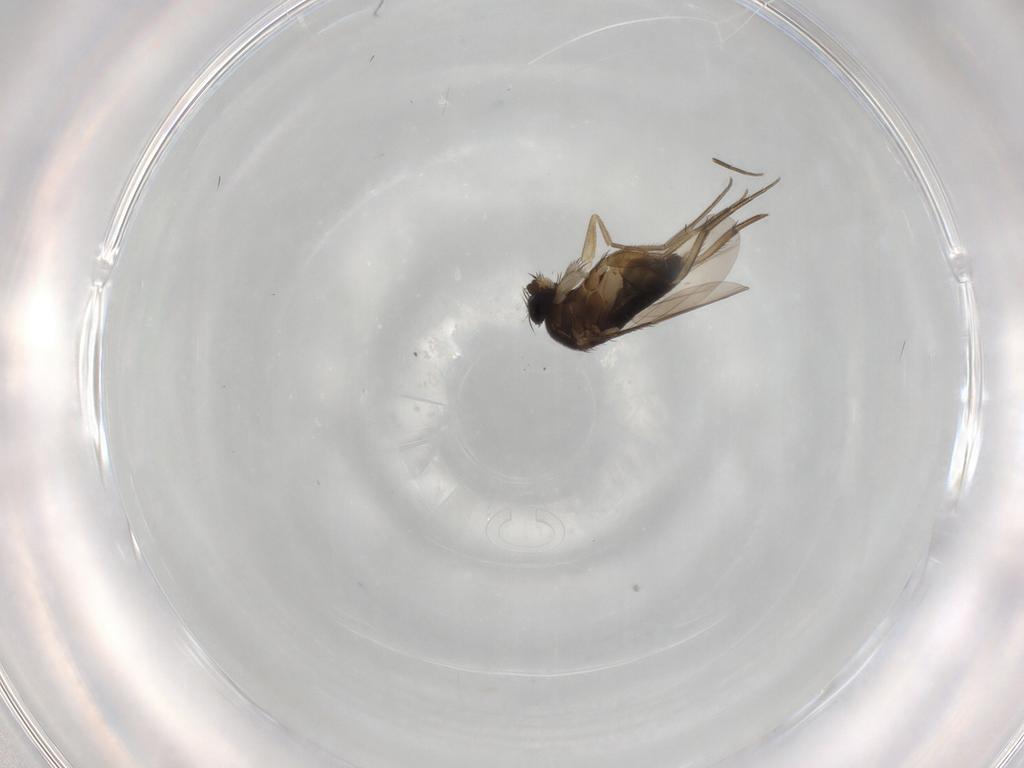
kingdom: Animalia
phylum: Arthropoda
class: Insecta
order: Diptera
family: Phoridae
